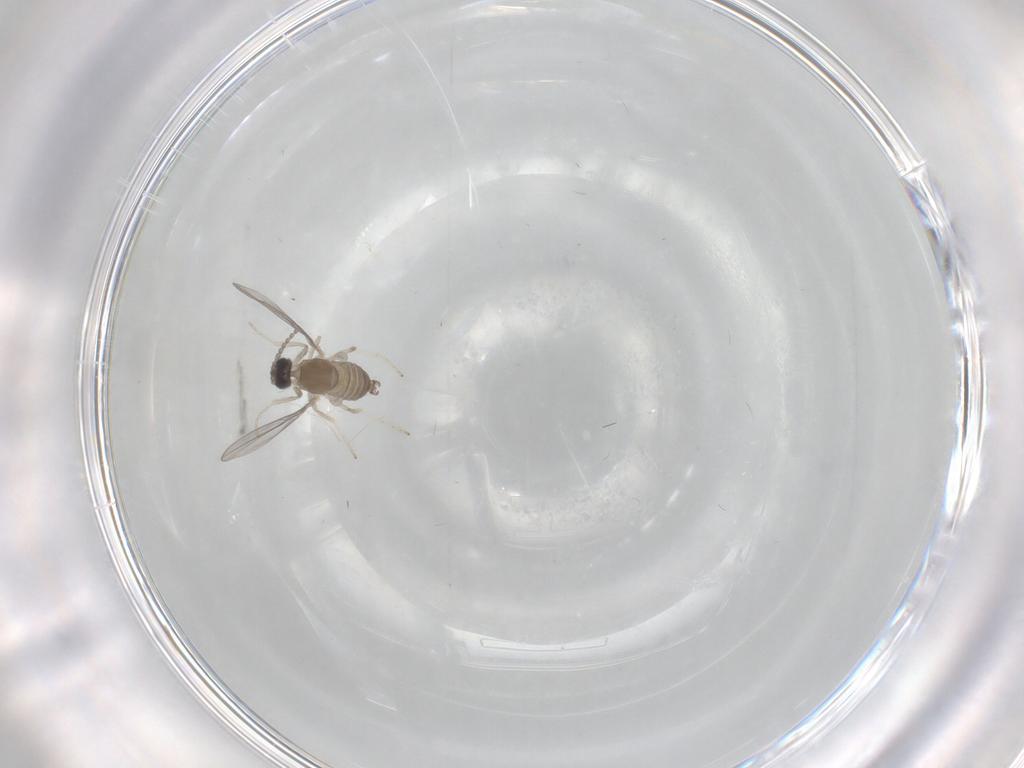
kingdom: Animalia
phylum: Arthropoda
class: Insecta
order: Diptera
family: Cecidomyiidae
